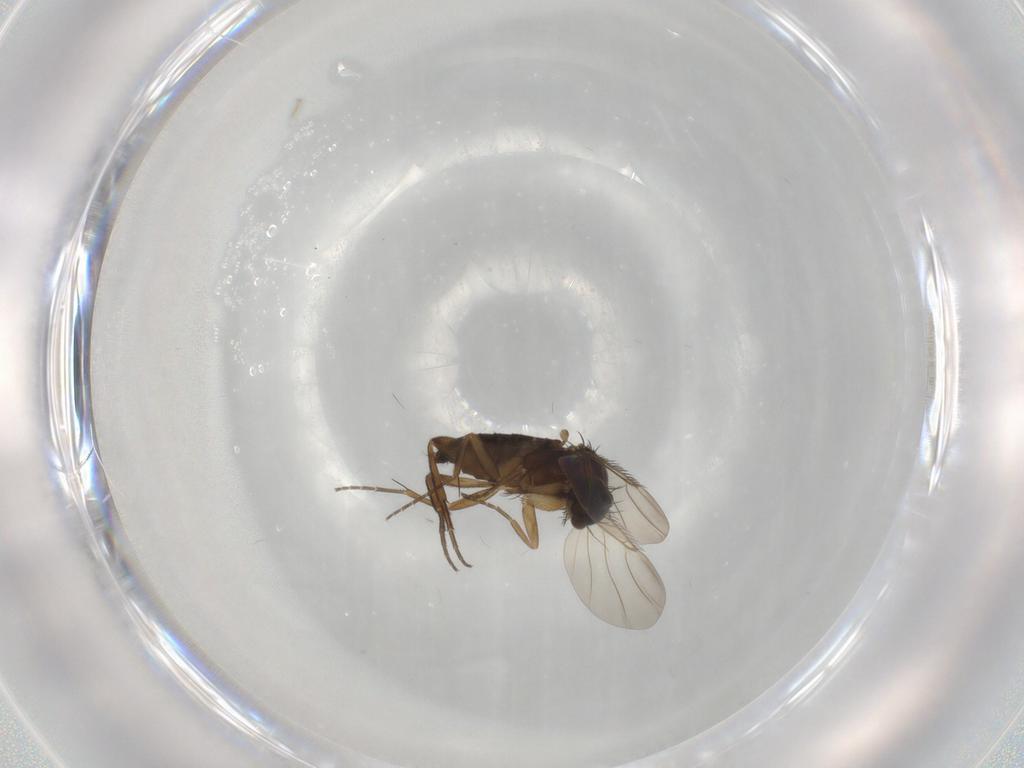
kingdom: Animalia
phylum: Arthropoda
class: Insecta
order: Diptera
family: Phoridae
